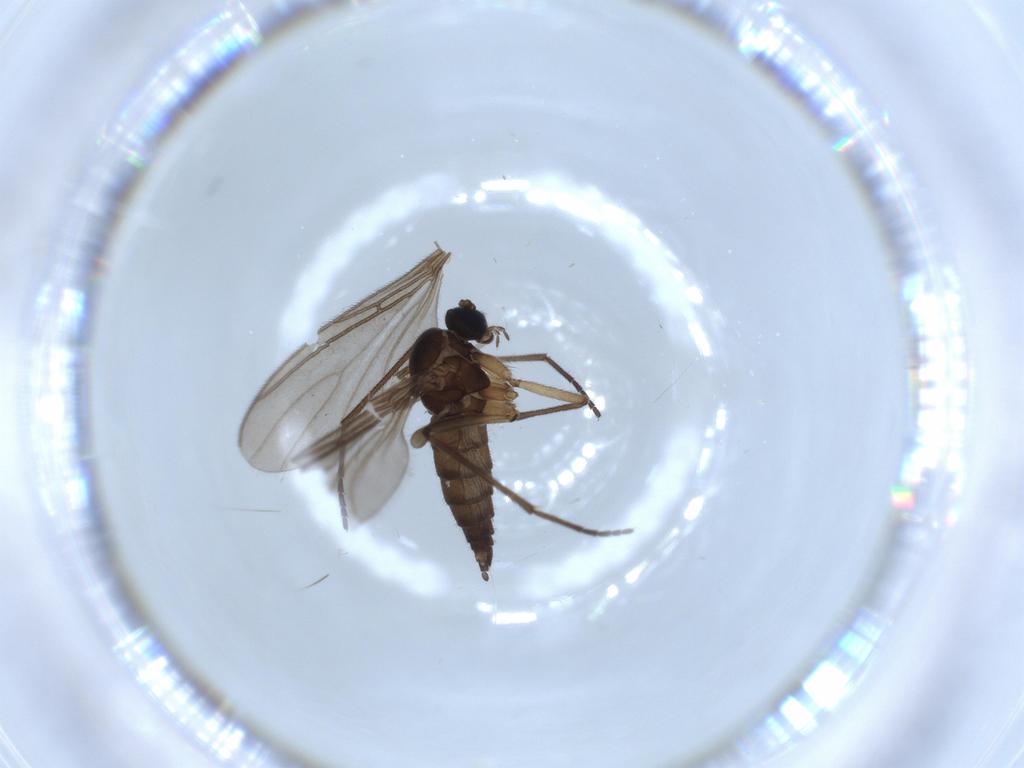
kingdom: Animalia
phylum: Arthropoda
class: Insecta
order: Diptera
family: Sciaridae
